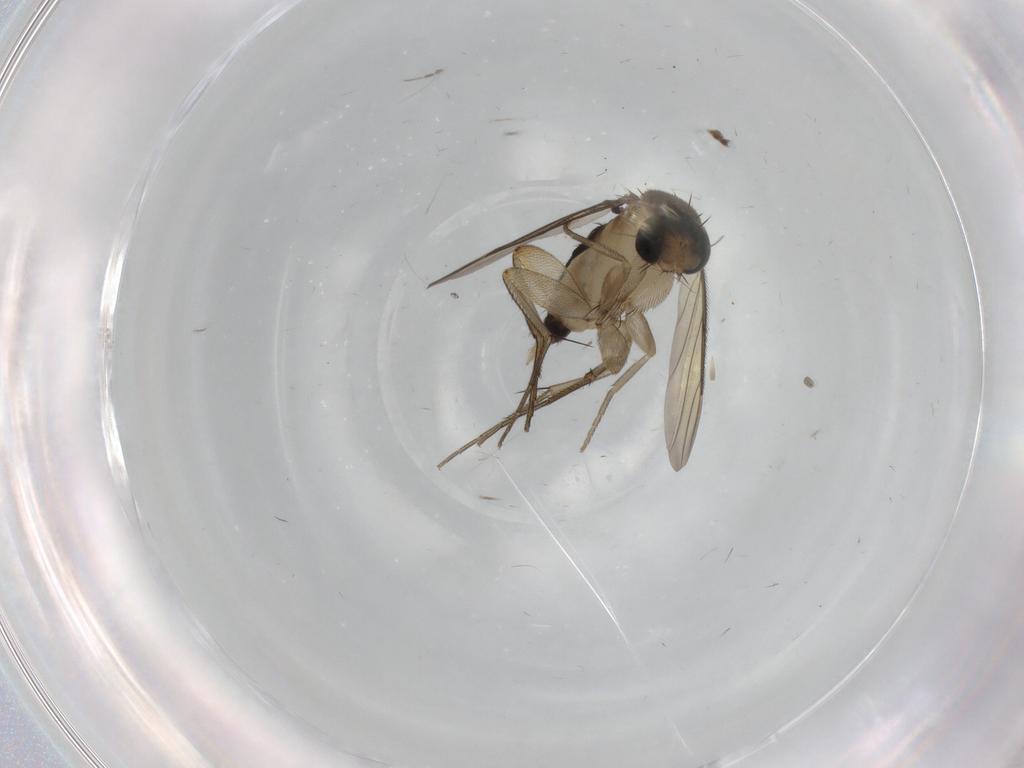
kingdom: Animalia
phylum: Arthropoda
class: Insecta
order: Diptera
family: Phoridae
